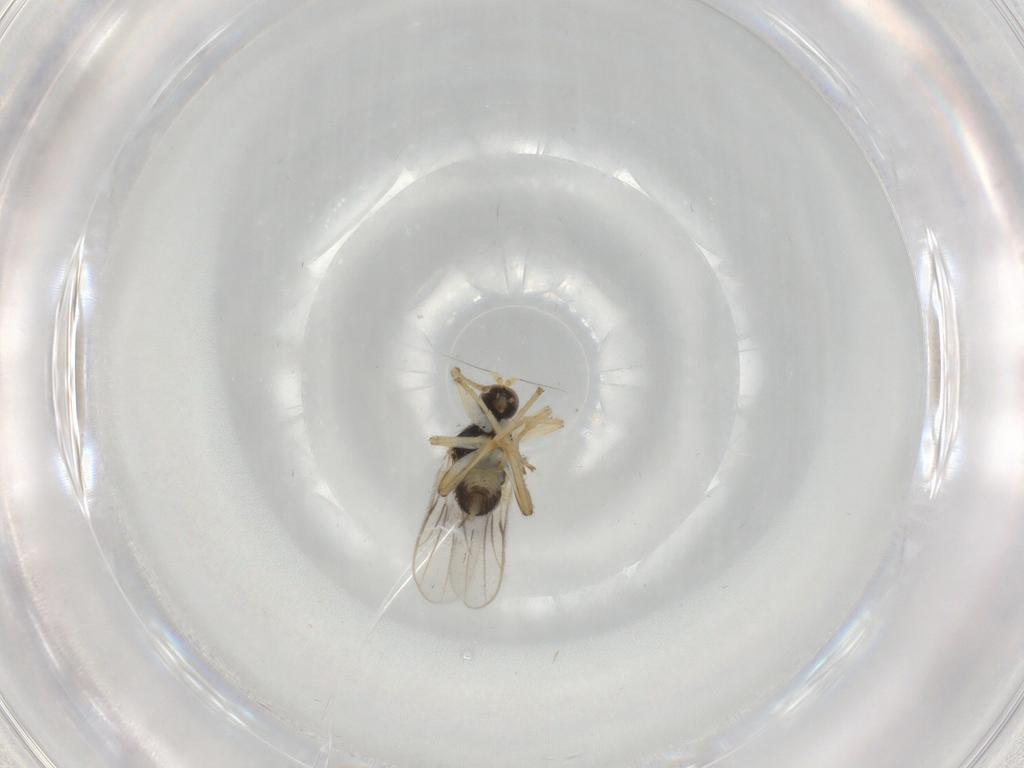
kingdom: Animalia
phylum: Arthropoda
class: Insecta
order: Diptera
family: Hybotidae
